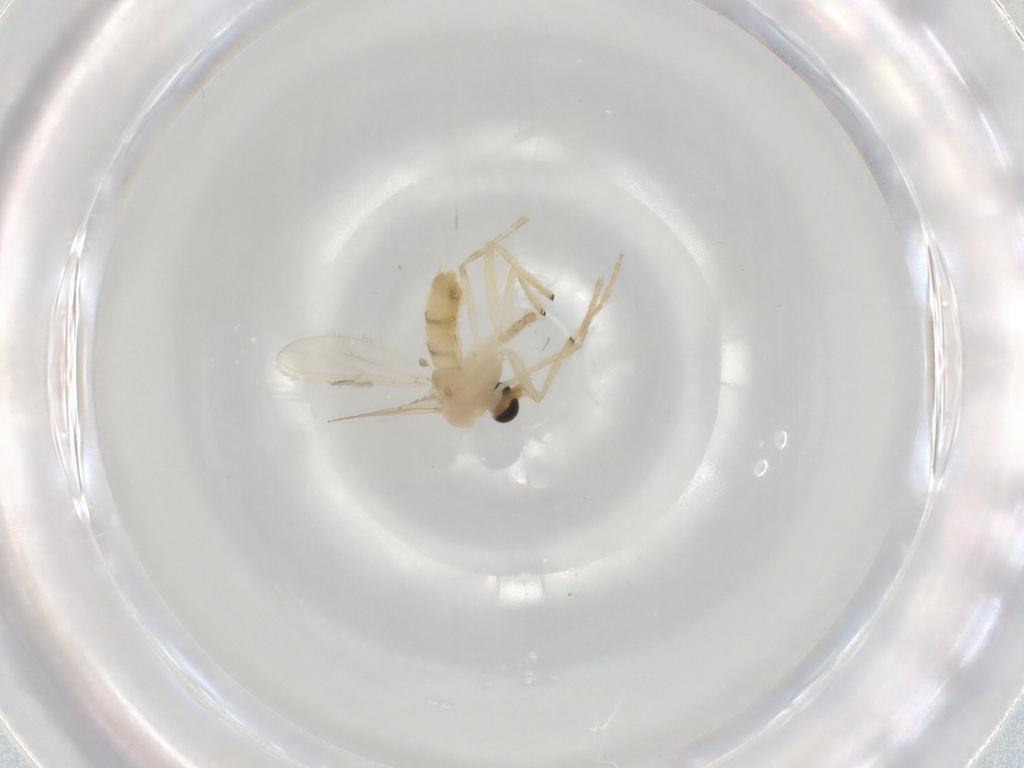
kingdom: Animalia
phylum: Arthropoda
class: Insecta
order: Diptera
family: Chironomidae
